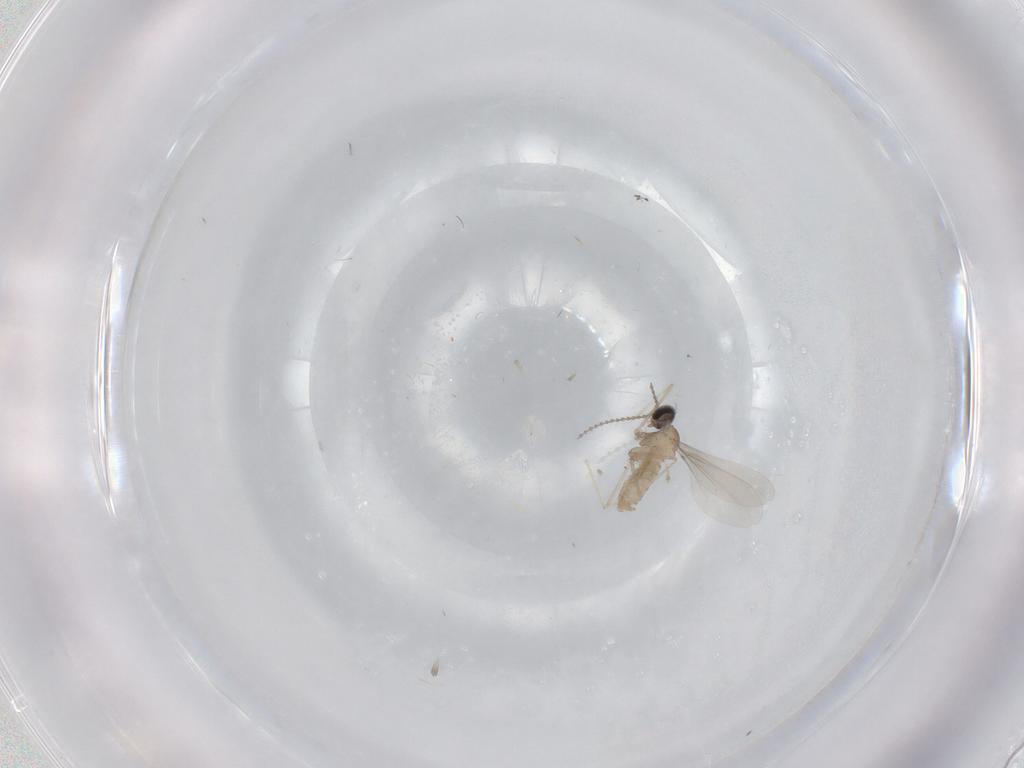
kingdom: Animalia
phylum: Arthropoda
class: Insecta
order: Diptera
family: Cecidomyiidae
